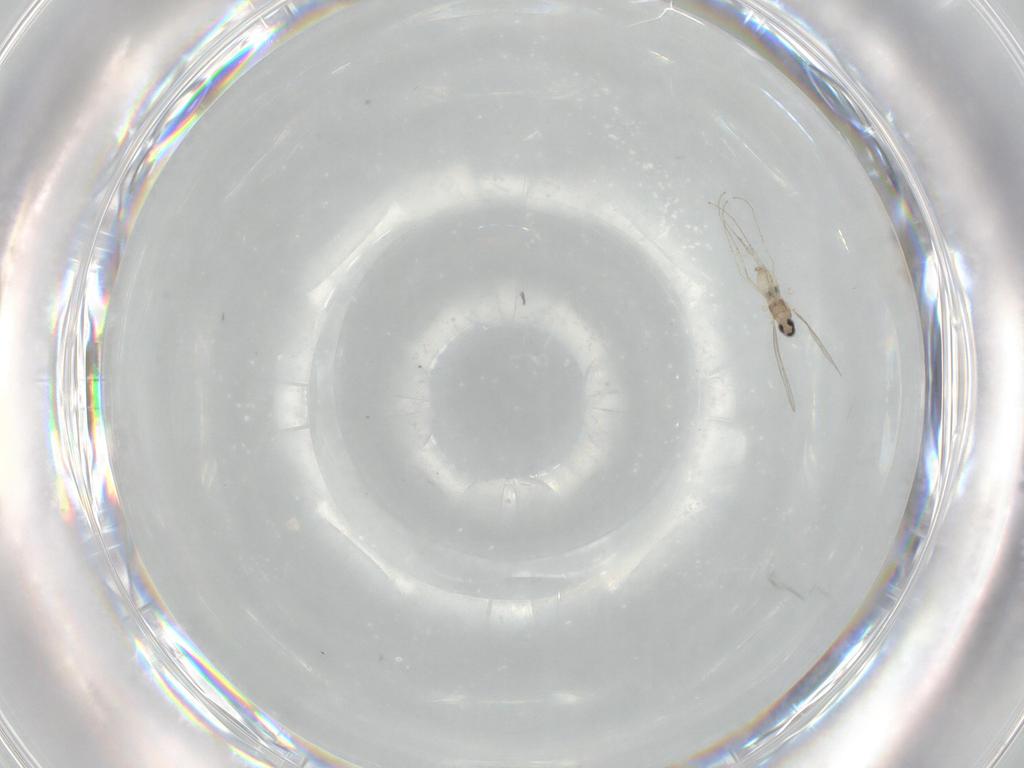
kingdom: Animalia
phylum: Arthropoda
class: Insecta
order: Diptera
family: Cecidomyiidae
